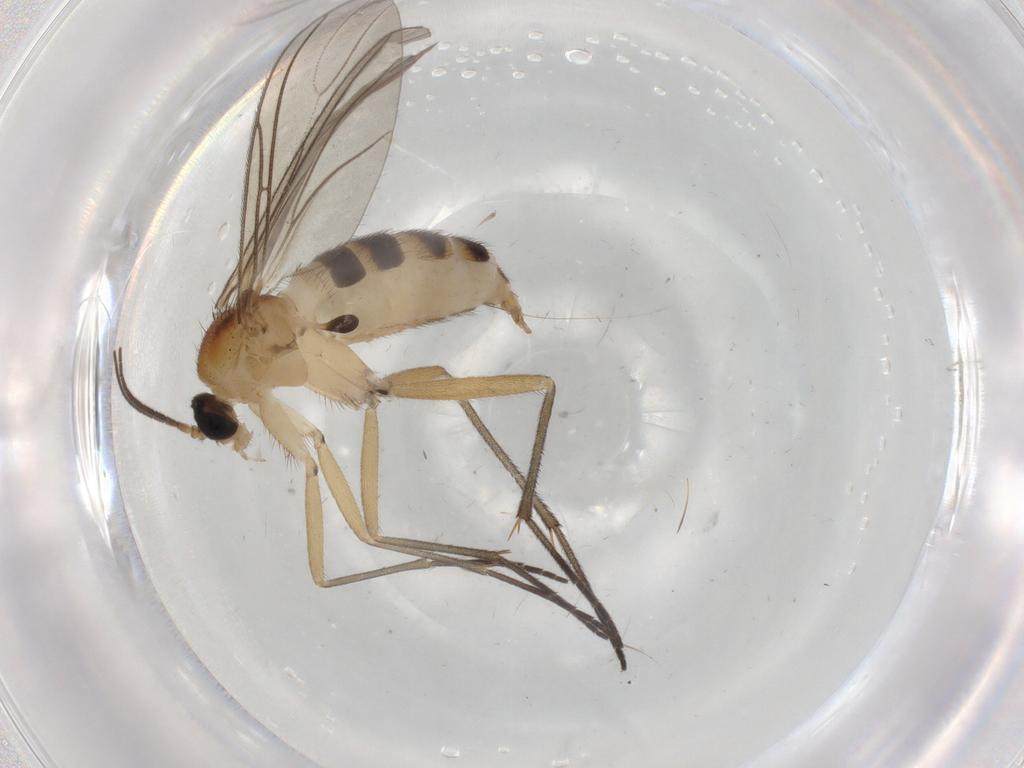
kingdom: Animalia
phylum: Arthropoda
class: Insecta
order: Diptera
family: Sciaridae
